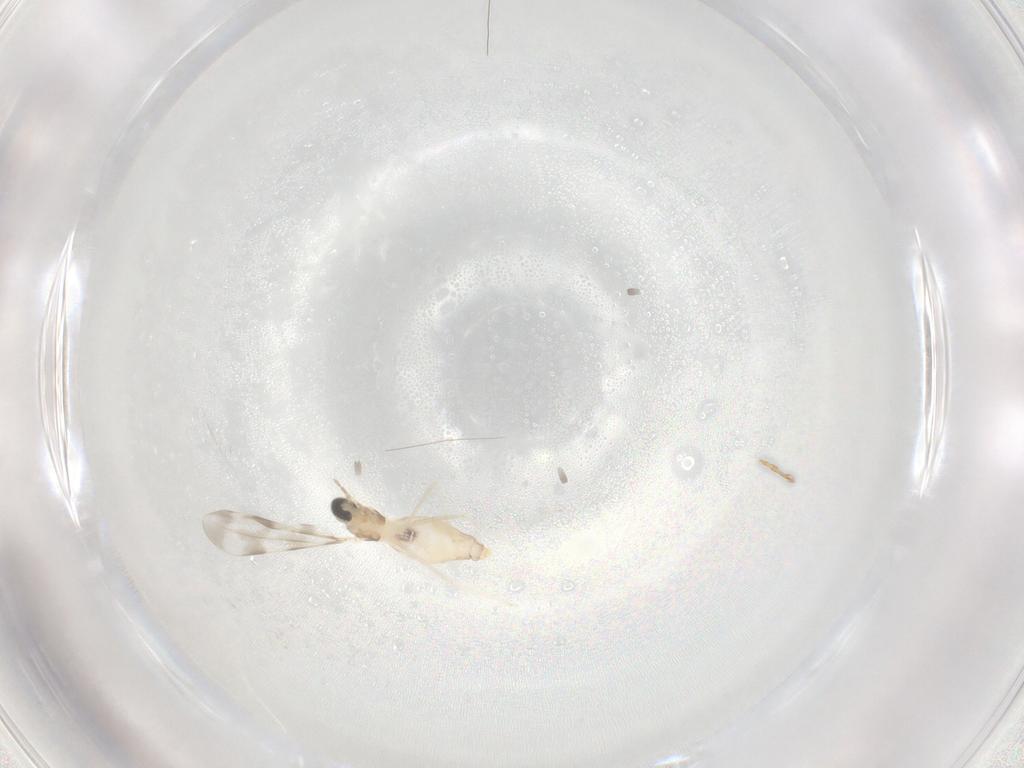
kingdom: Animalia
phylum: Arthropoda
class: Insecta
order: Diptera
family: Cecidomyiidae
